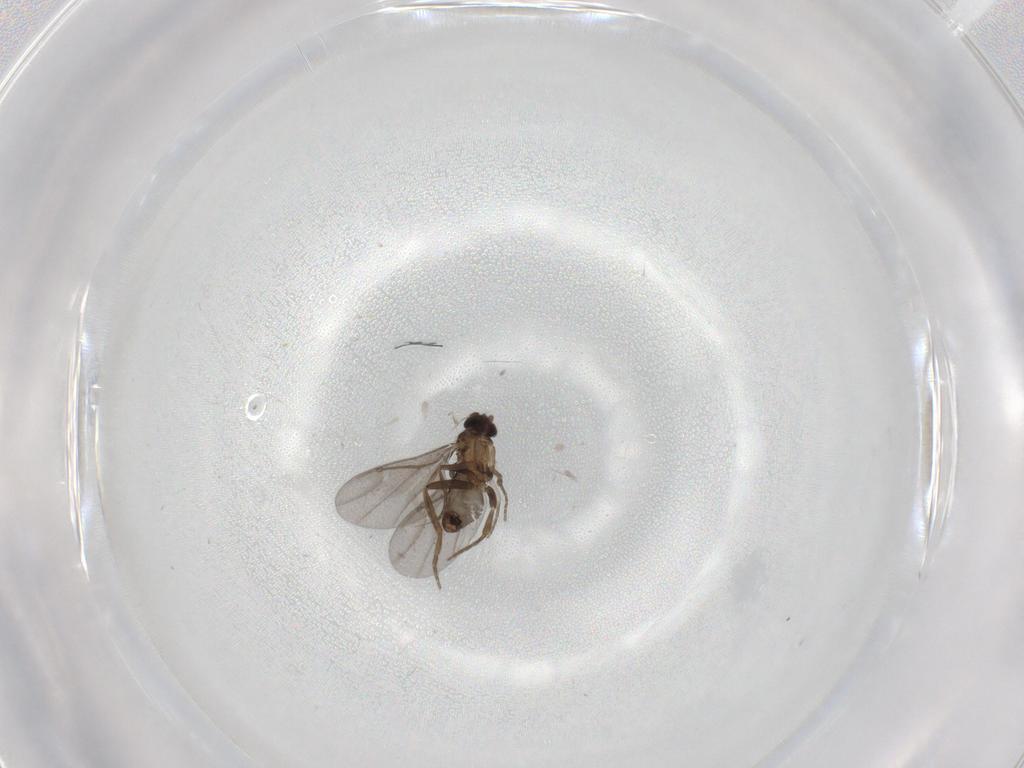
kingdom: Animalia
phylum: Arthropoda
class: Insecta
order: Diptera
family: Phoridae
